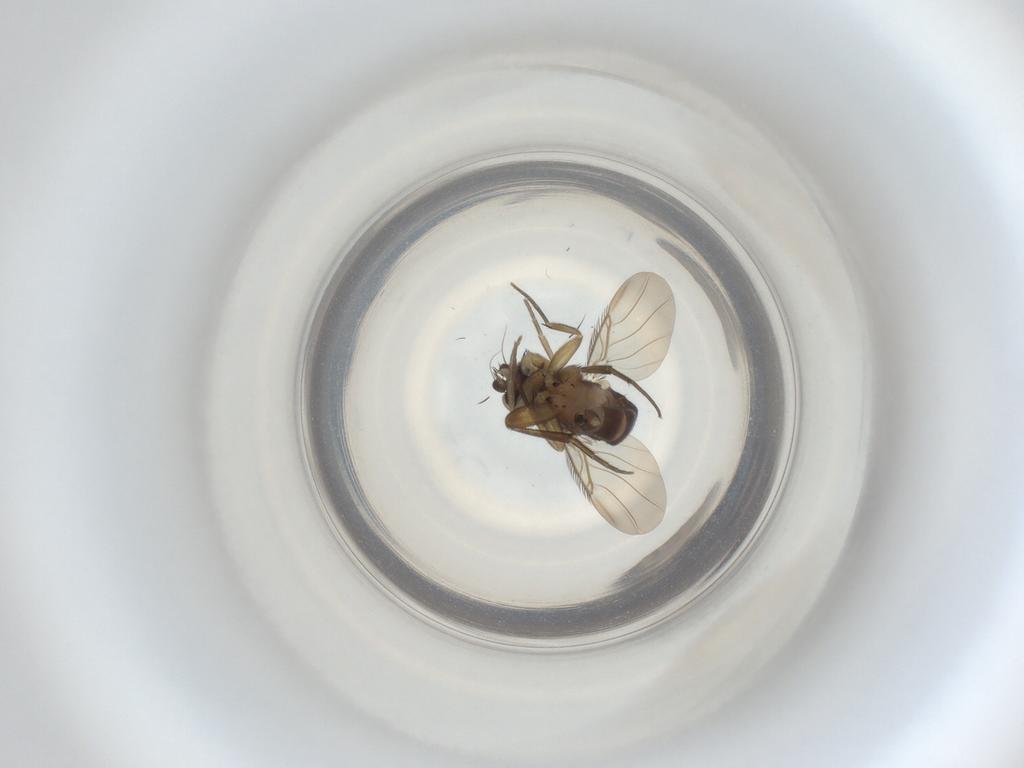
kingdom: Animalia
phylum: Arthropoda
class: Insecta
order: Diptera
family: Phoridae
